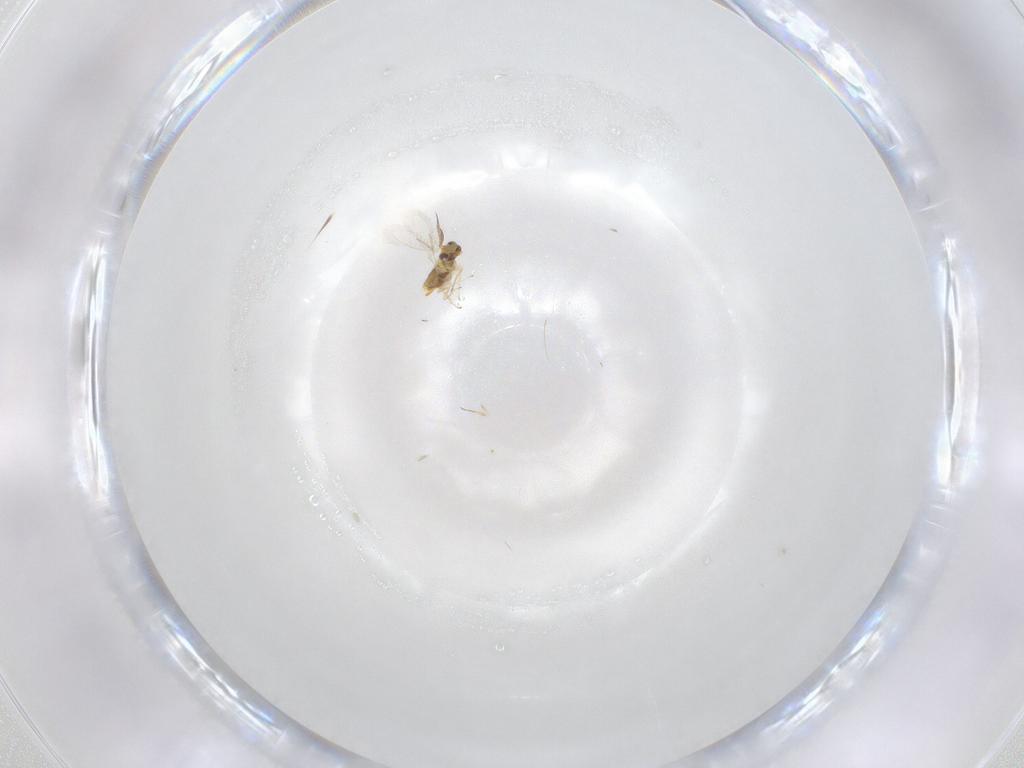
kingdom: Animalia
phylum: Arthropoda
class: Insecta
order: Hymenoptera
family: Aphelinidae
